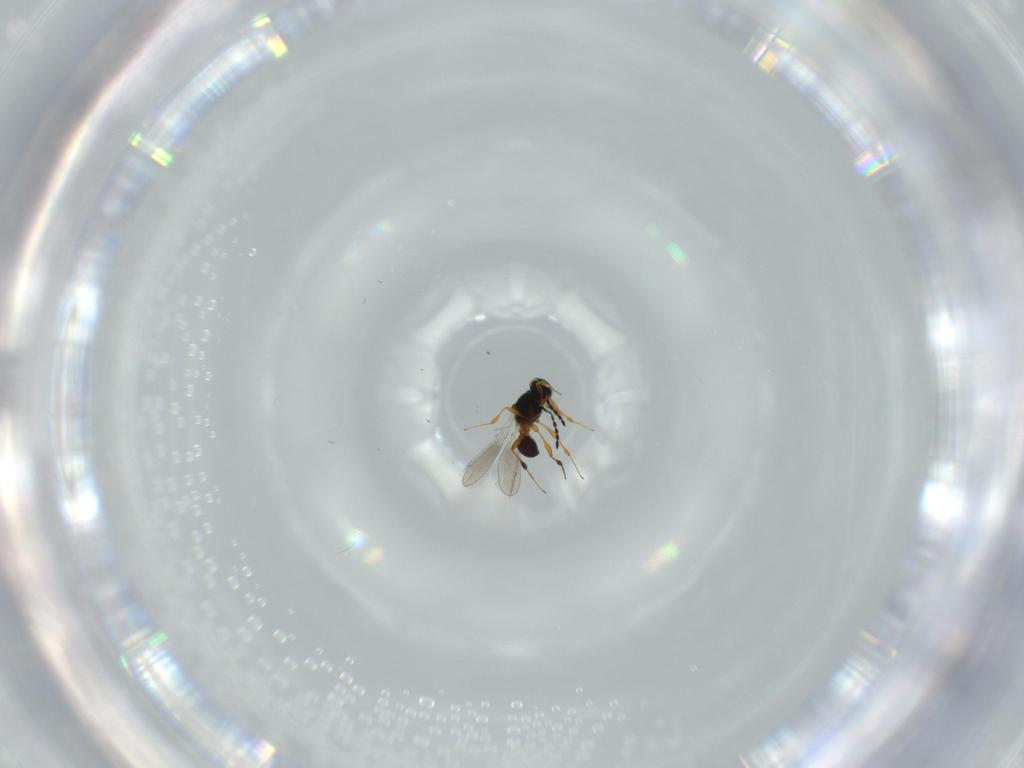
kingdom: Animalia
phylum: Arthropoda
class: Insecta
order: Hymenoptera
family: Platygastridae
